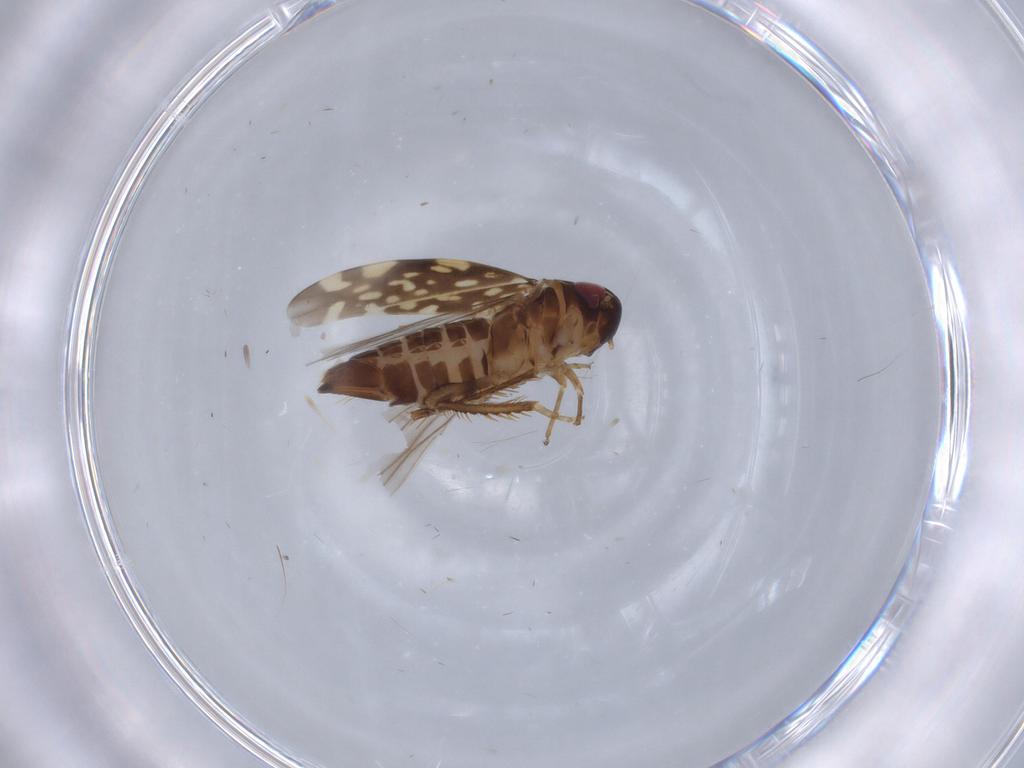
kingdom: Animalia
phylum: Arthropoda
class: Insecta
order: Hemiptera
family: Cicadellidae
